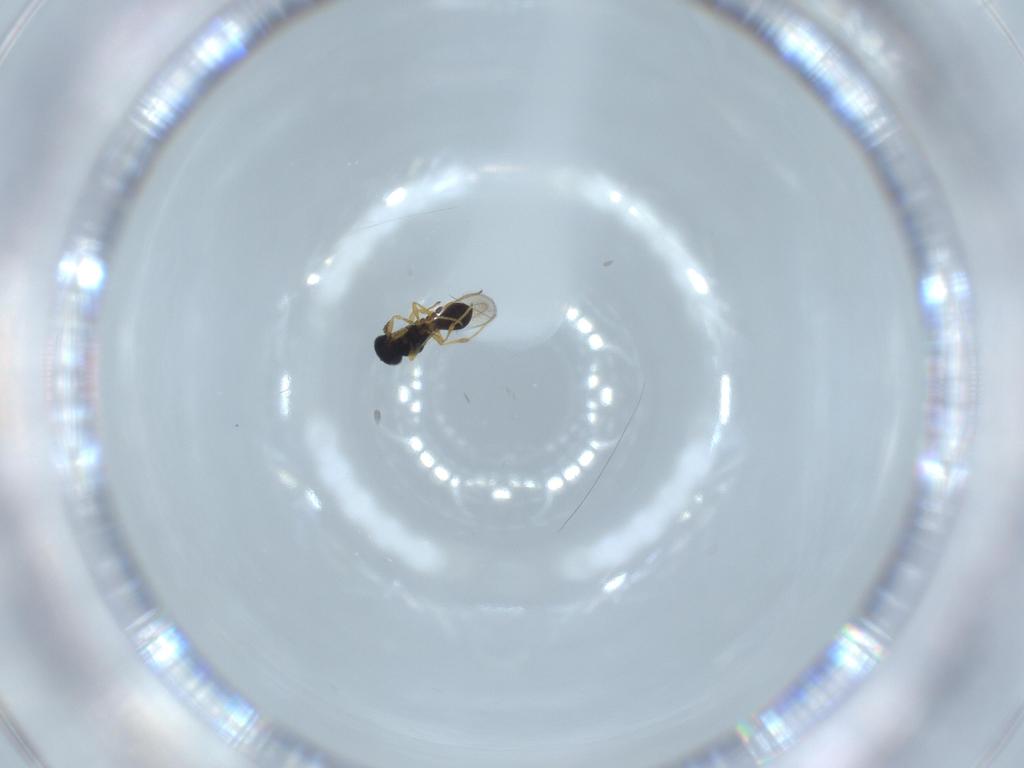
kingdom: Animalia
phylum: Arthropoda
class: Insecta
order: Hymenoptera
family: Platygastridae
